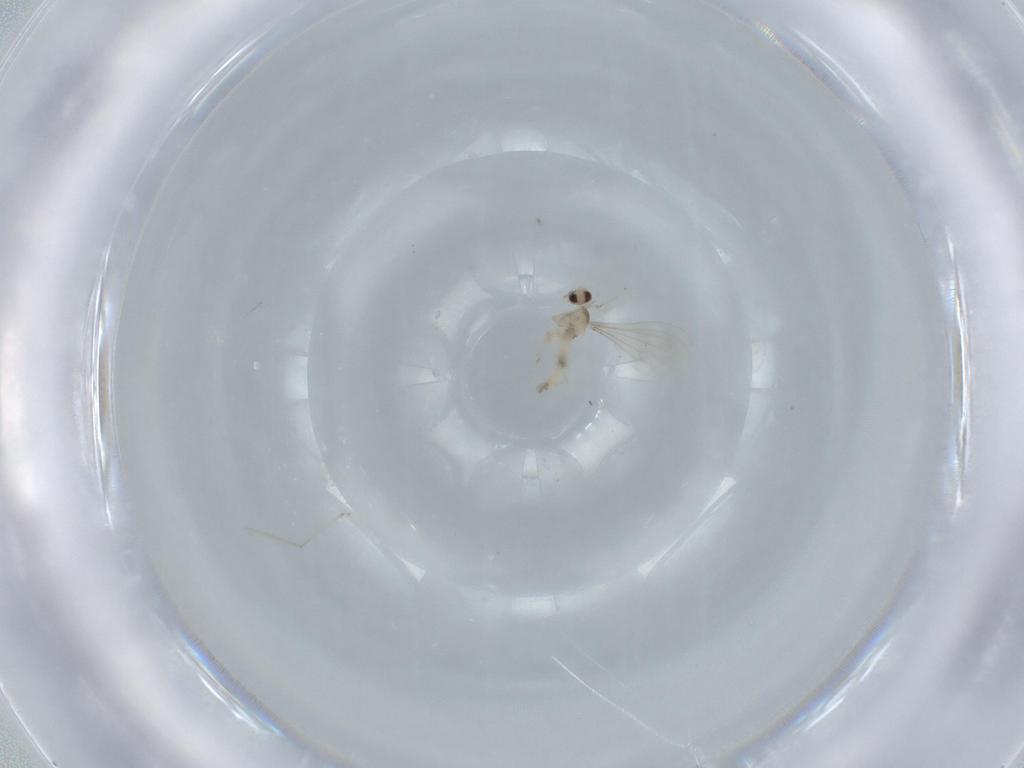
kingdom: Animalia
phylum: Arthropoda
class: Insecta
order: Diptera
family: Cecidomyiidae
